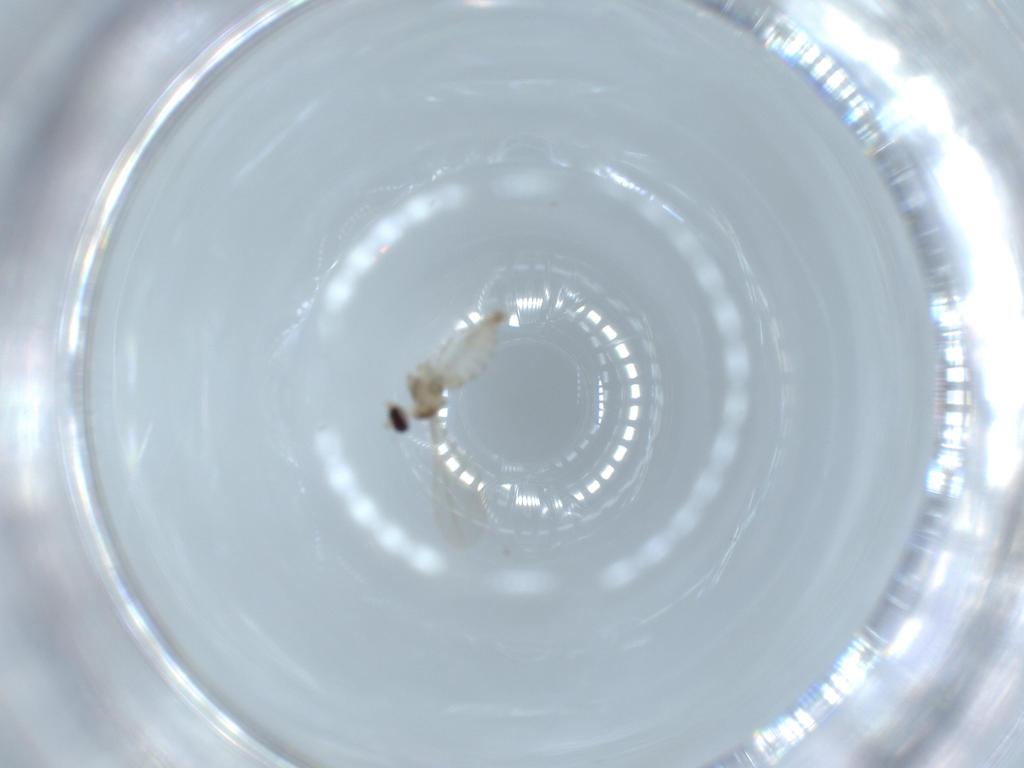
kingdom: Animalia
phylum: Arthropoda
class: Insecta
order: Diptera
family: Cecidomyiidae
